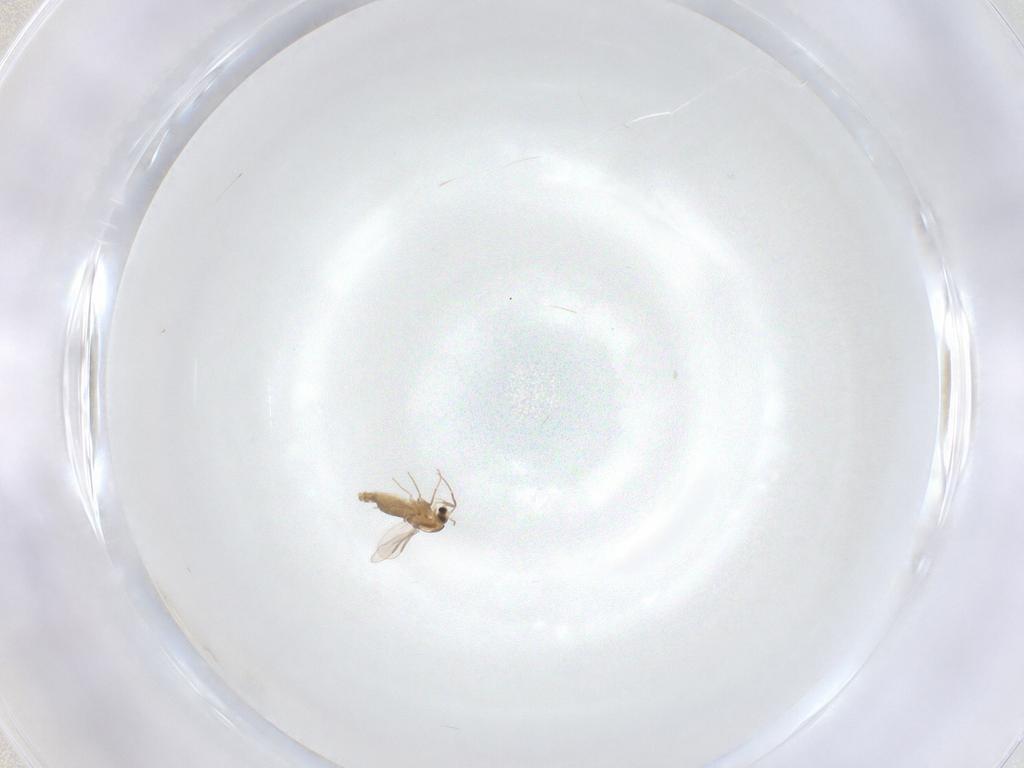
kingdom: Animalia
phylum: Arthropoda
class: Insecta
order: Diptera
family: Chironomidae
